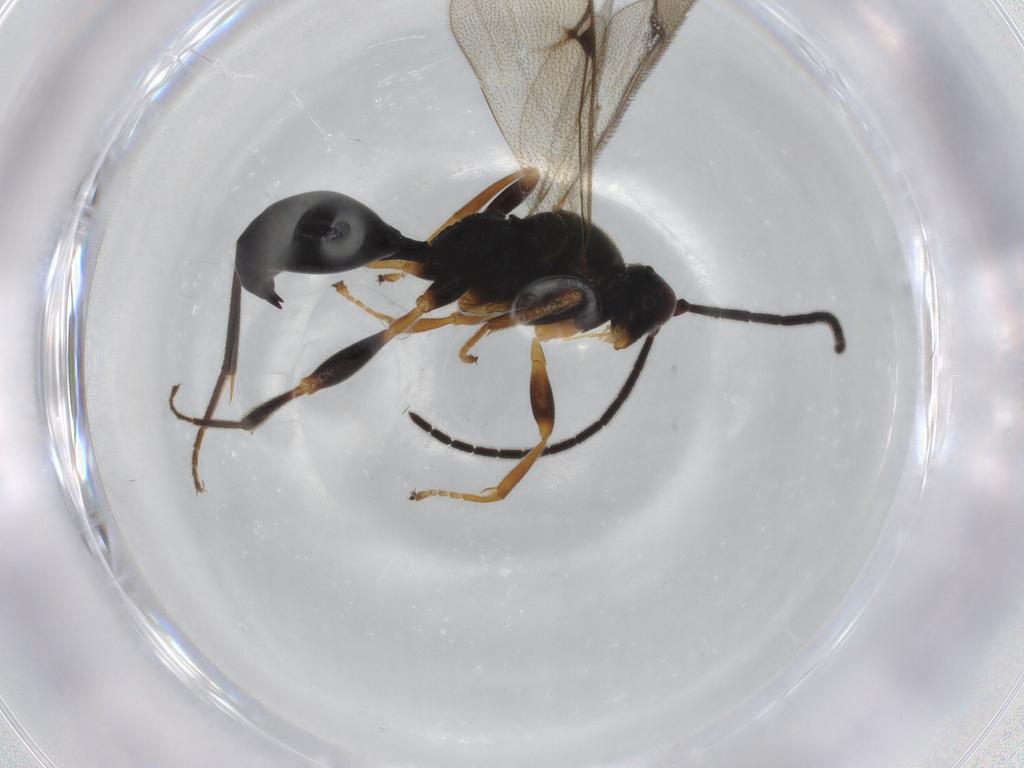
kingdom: Animalia
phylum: Arthropoda
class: Insecta
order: Hymenoptera
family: Proctotrupidae
